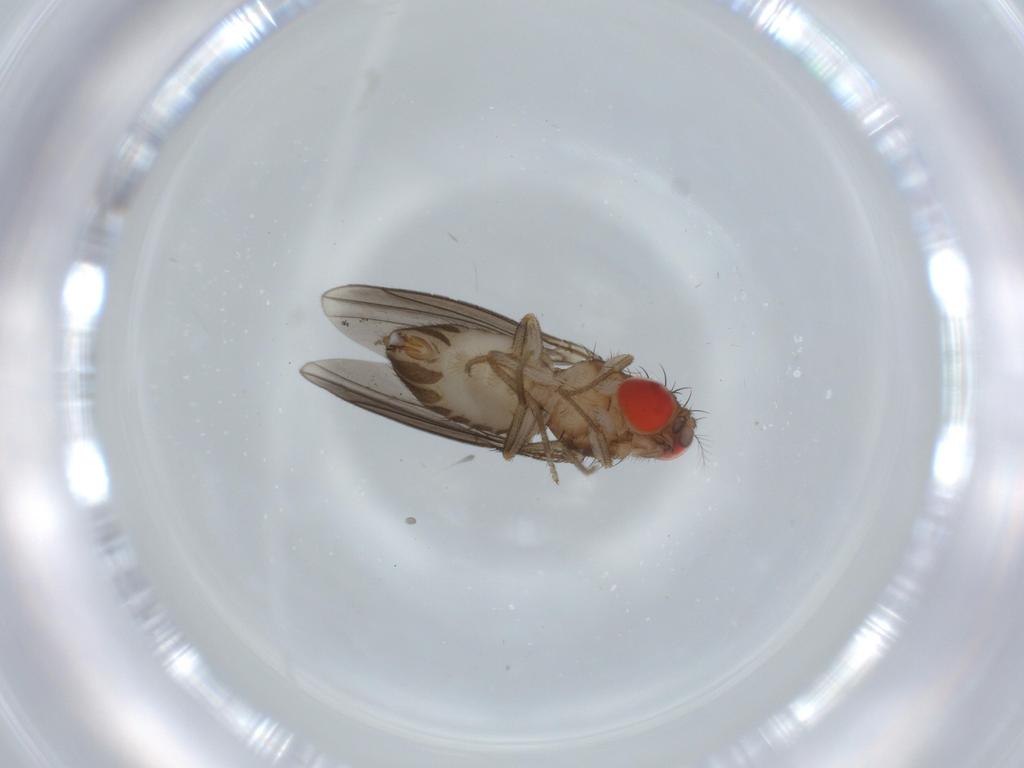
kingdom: Animalia
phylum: Arthropoda
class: Insecta
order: Diptera
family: Drosophilidae
